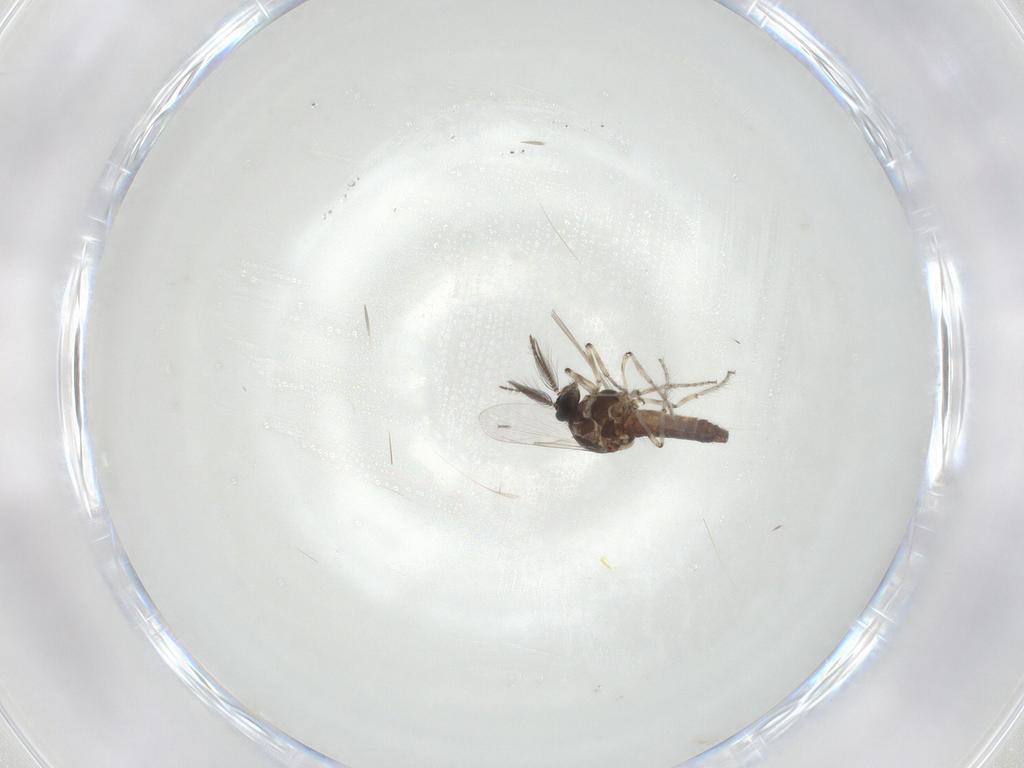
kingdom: Animalia
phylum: Arthropoda
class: Insecta
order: Diptera
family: Ceratopogonidae
